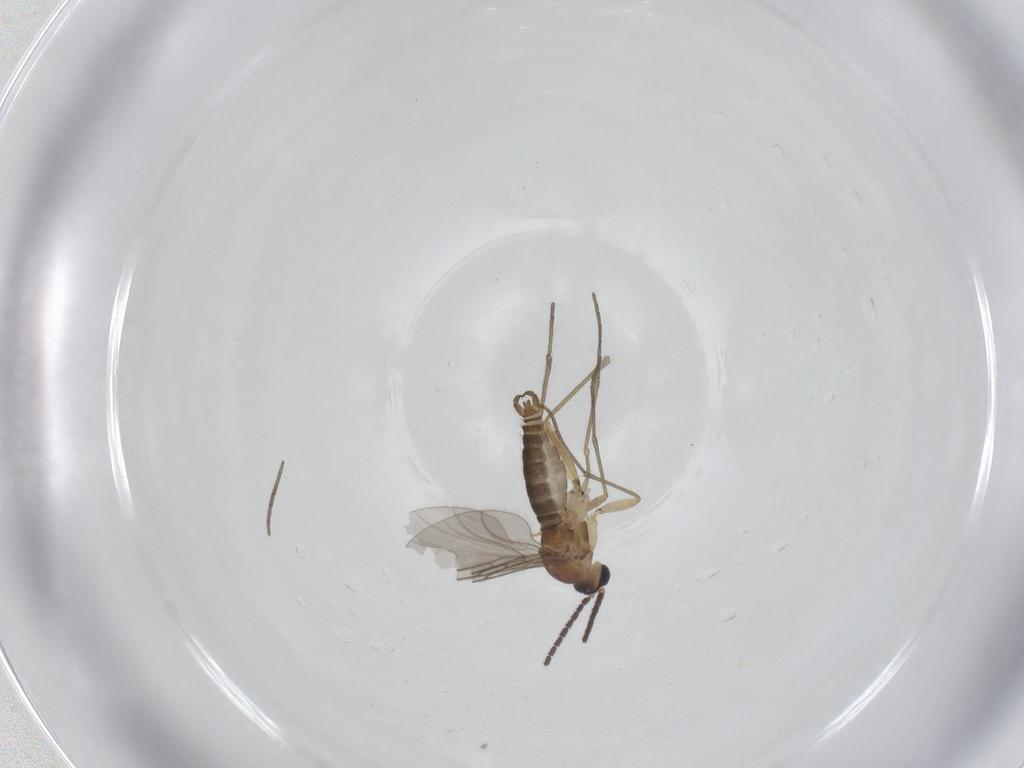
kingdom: Animalia
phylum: Arthropoda
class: Insecta
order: Diptera
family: Sciaridae
